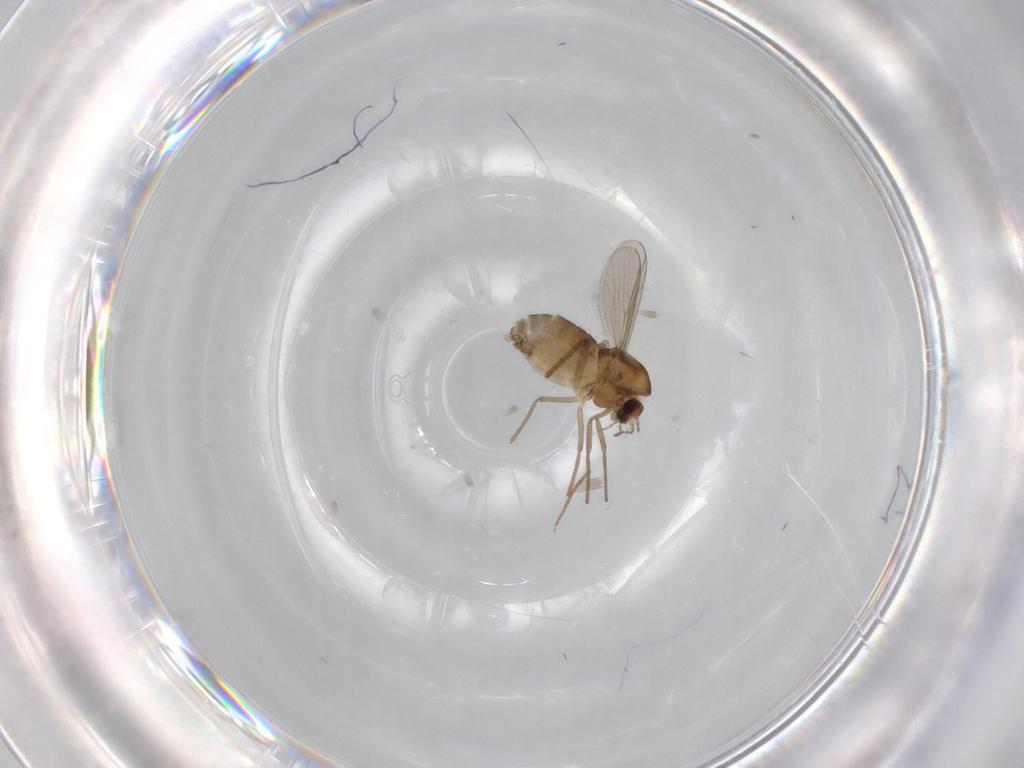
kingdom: Animalia
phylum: Arthropoda
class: Insecta
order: Diptera
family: Chironomidae
